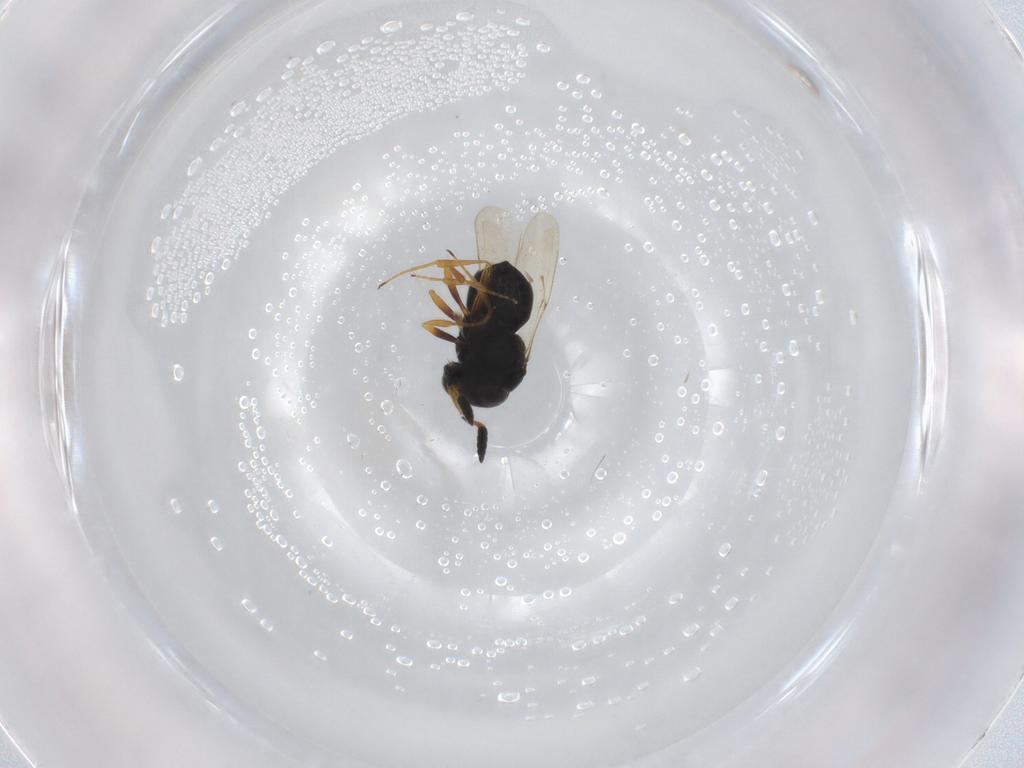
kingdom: Animalia
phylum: Arthropoda
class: Insecta
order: Hymenoptera
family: Scelionidae
